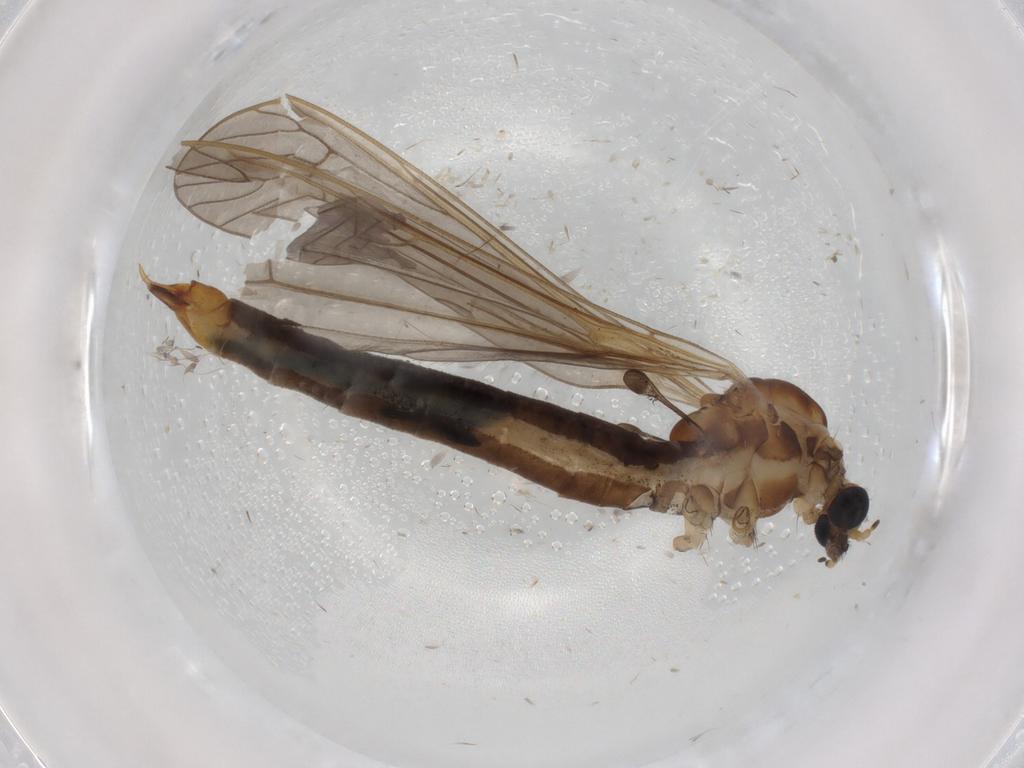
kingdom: Animalia
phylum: Arthropoda
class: Insecta
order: Diptera
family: Limoniidae
